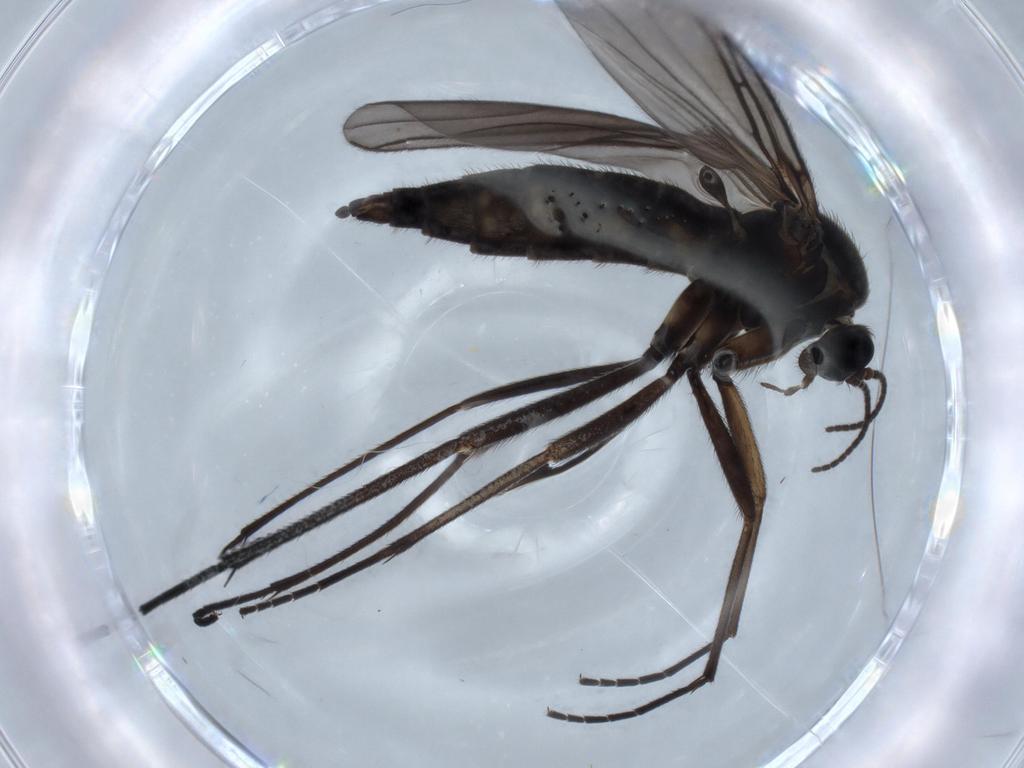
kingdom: Animalia
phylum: Arthropoda
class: Insecta
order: Diptera
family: Sciaridae
